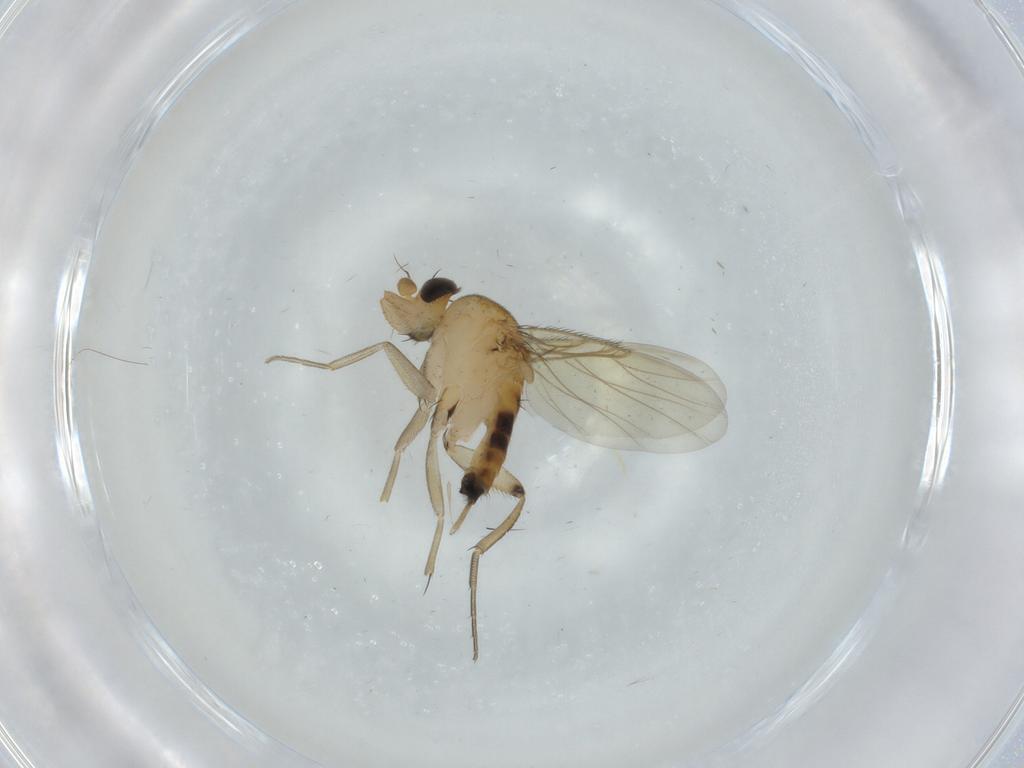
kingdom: Animalia
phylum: Arthropoda
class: Insecta
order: Diptera
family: Phoridae
